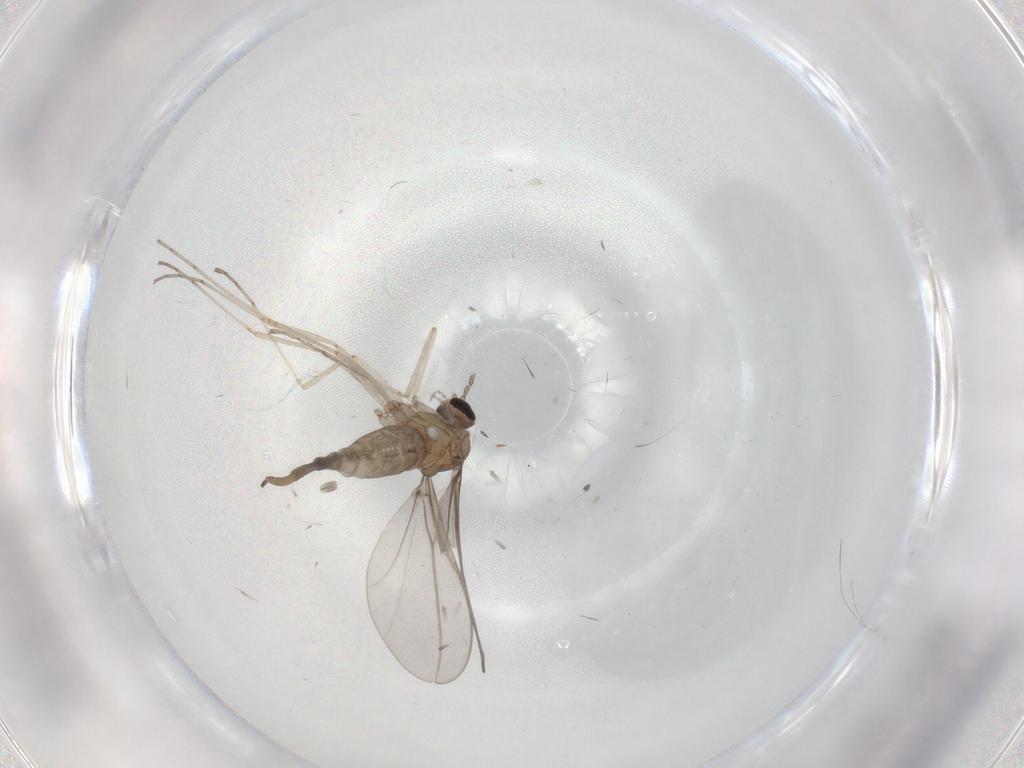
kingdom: Animalia
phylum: Arthropoda
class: Insecta
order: Diptera
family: Cecidomyiidae
